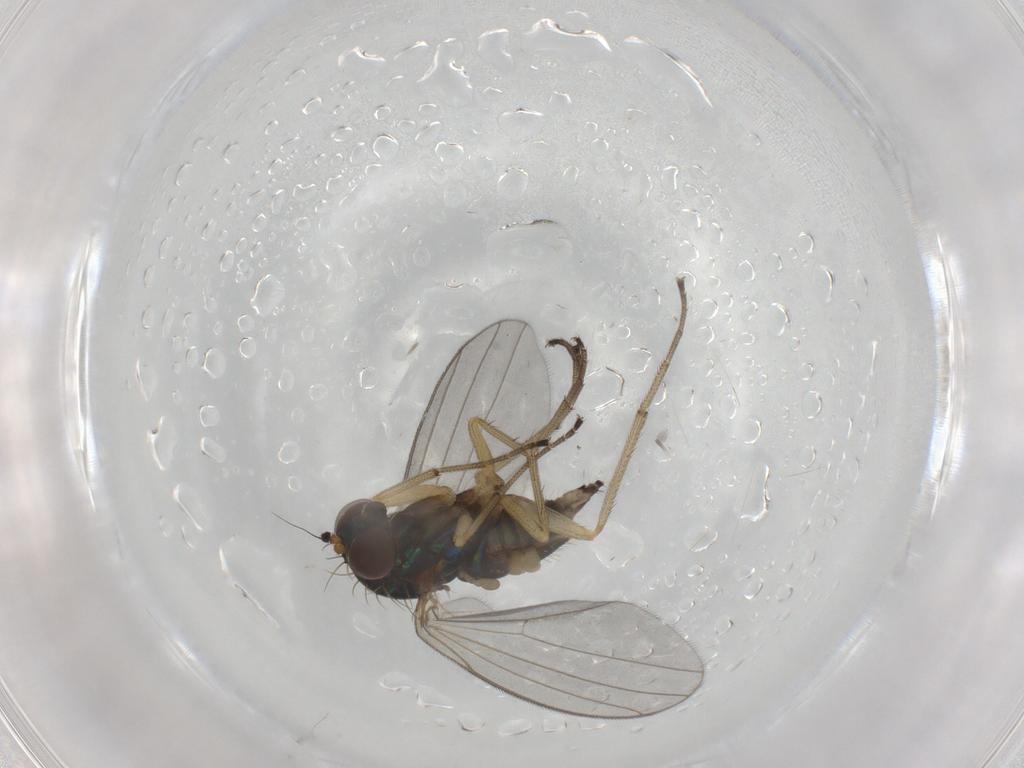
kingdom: Animalia
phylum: Arthropoda
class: Insecta
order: Diptera
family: Dolichopodidae
